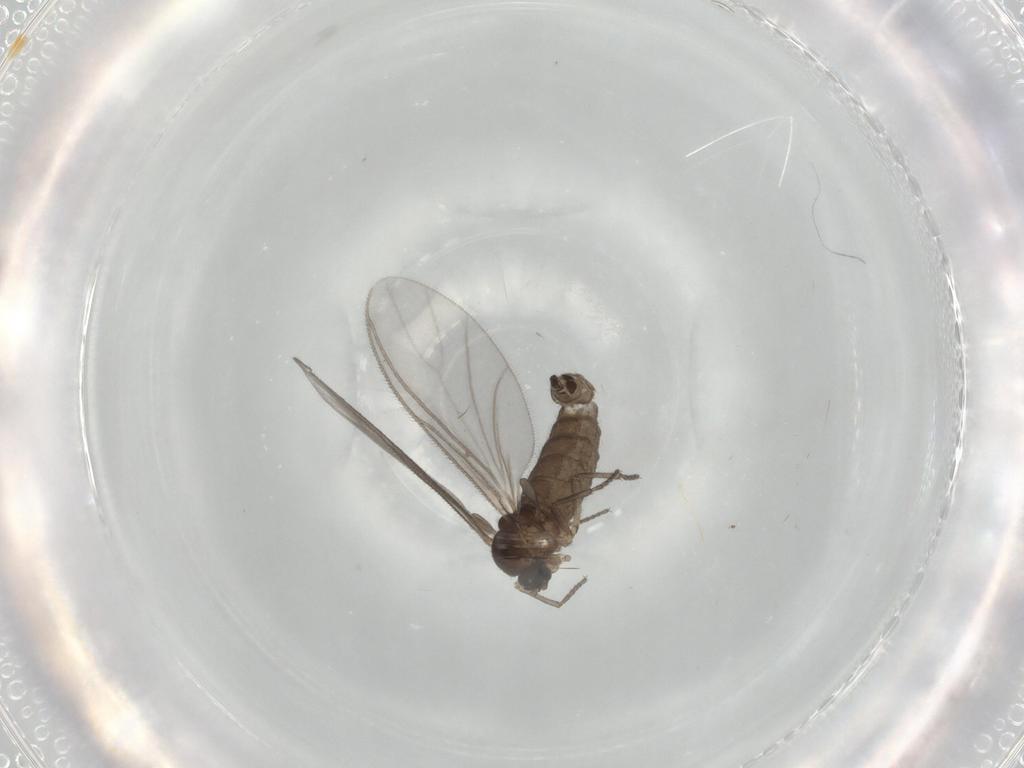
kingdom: Animalia
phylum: Arthropoda
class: Insecta
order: Diptera
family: Sciaridae
